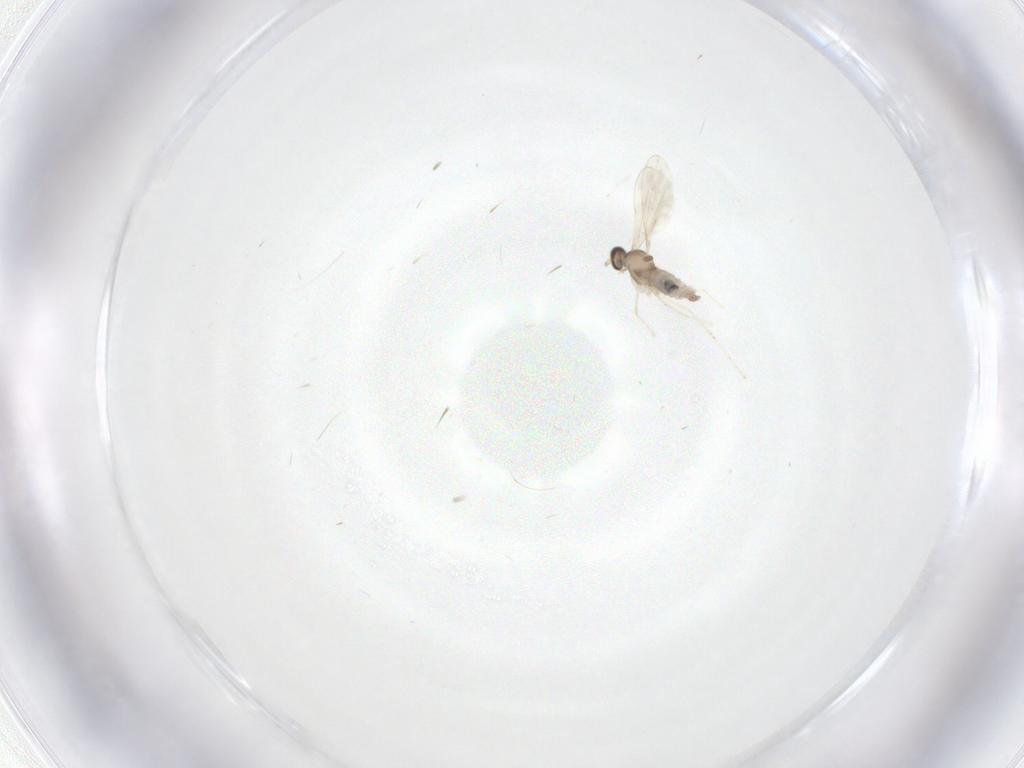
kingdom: Animalia
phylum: Arthropoda
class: Insecta
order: Diptera
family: Cecidomyiidae
